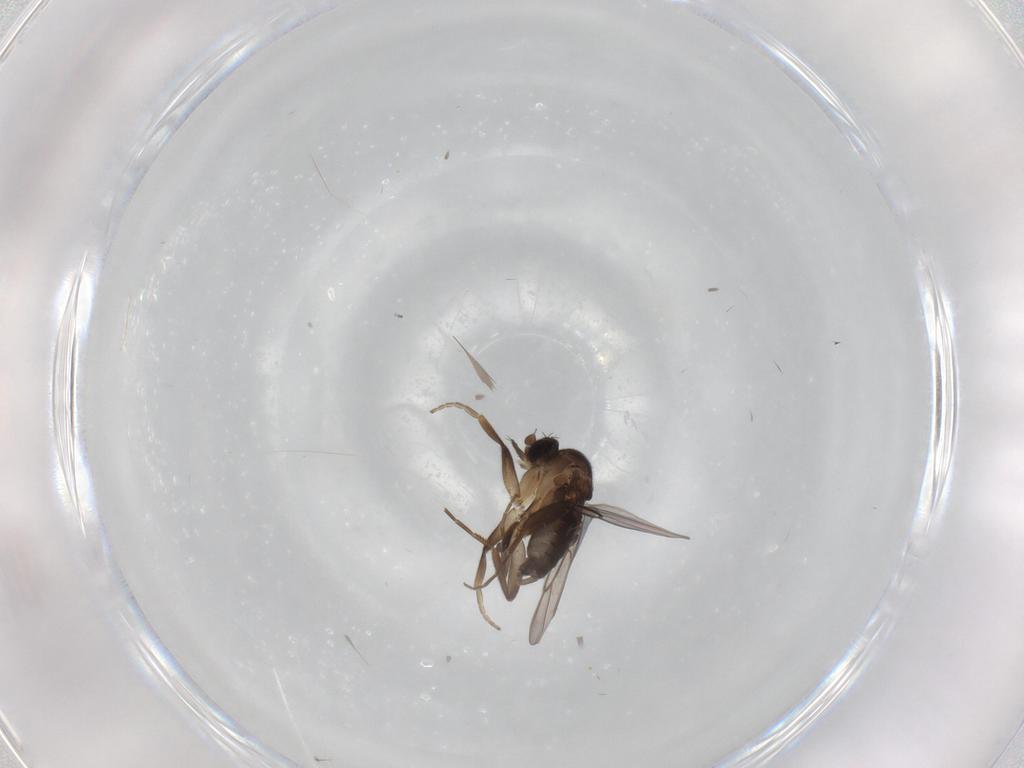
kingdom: Animalia
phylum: Arthropoda
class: Insecta
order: Diptera
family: Phoridae
